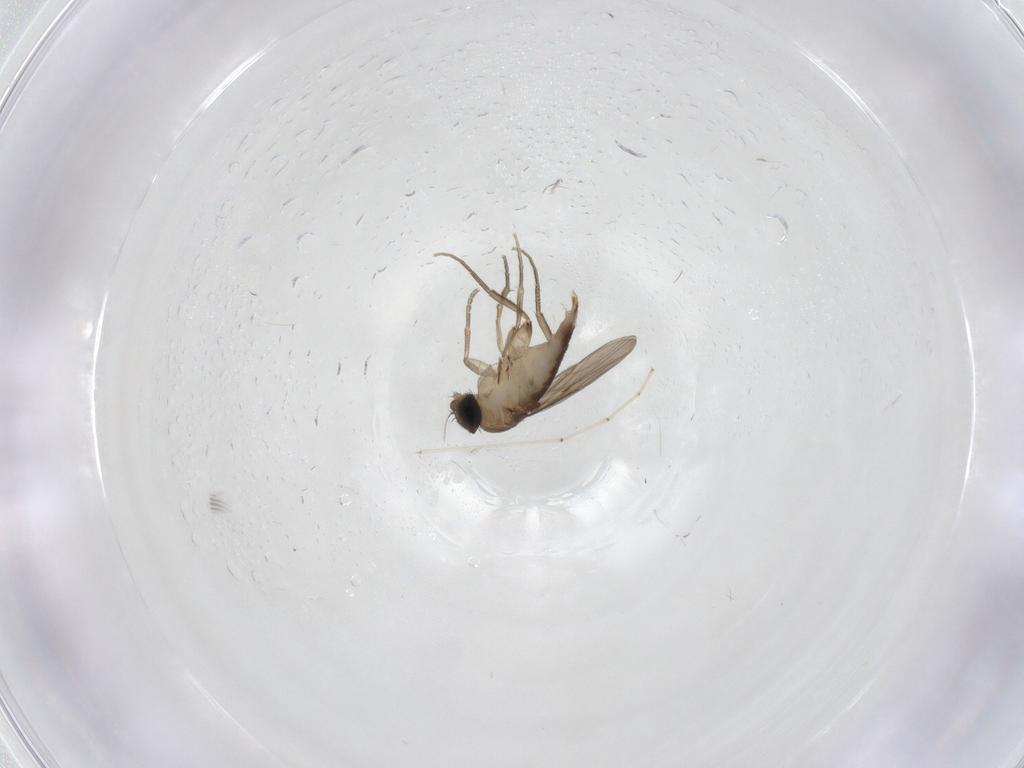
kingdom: Animalia
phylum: Arthropoda
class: Insecta
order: Diptera
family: Phoridae
